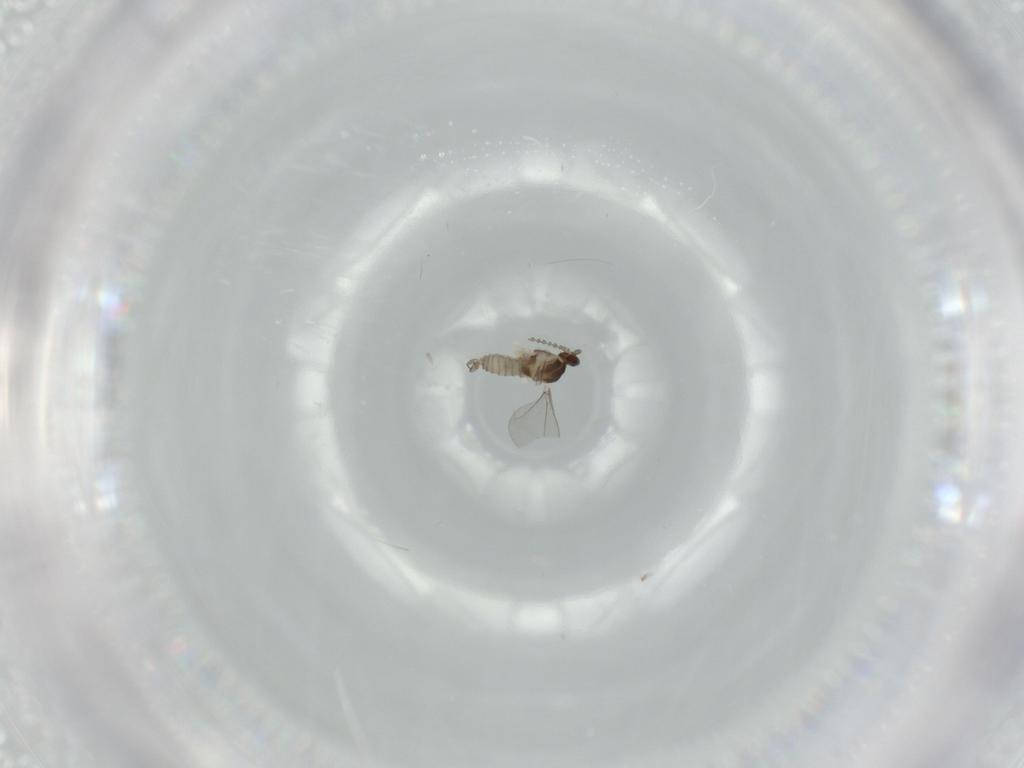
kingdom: Animalia
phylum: Arthropoda
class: Insecta
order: Diptera
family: Cecidomyiidae
